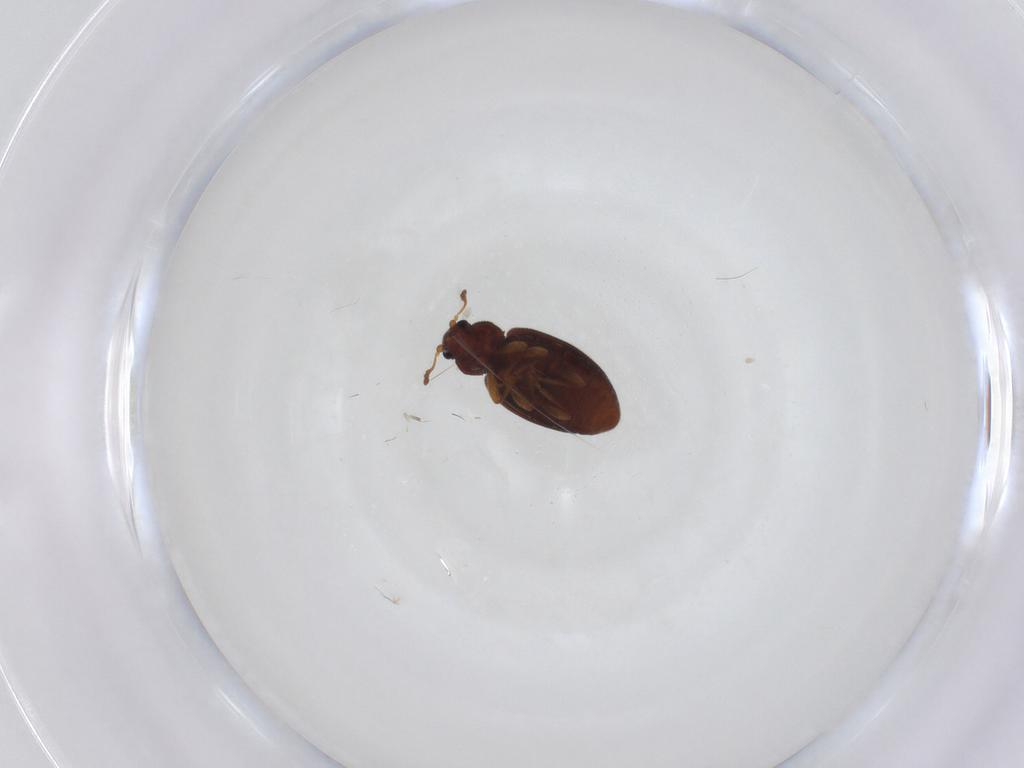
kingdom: Animalia
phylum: Arthropoda
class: Insecta
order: Coleoptera
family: Latridiidae
